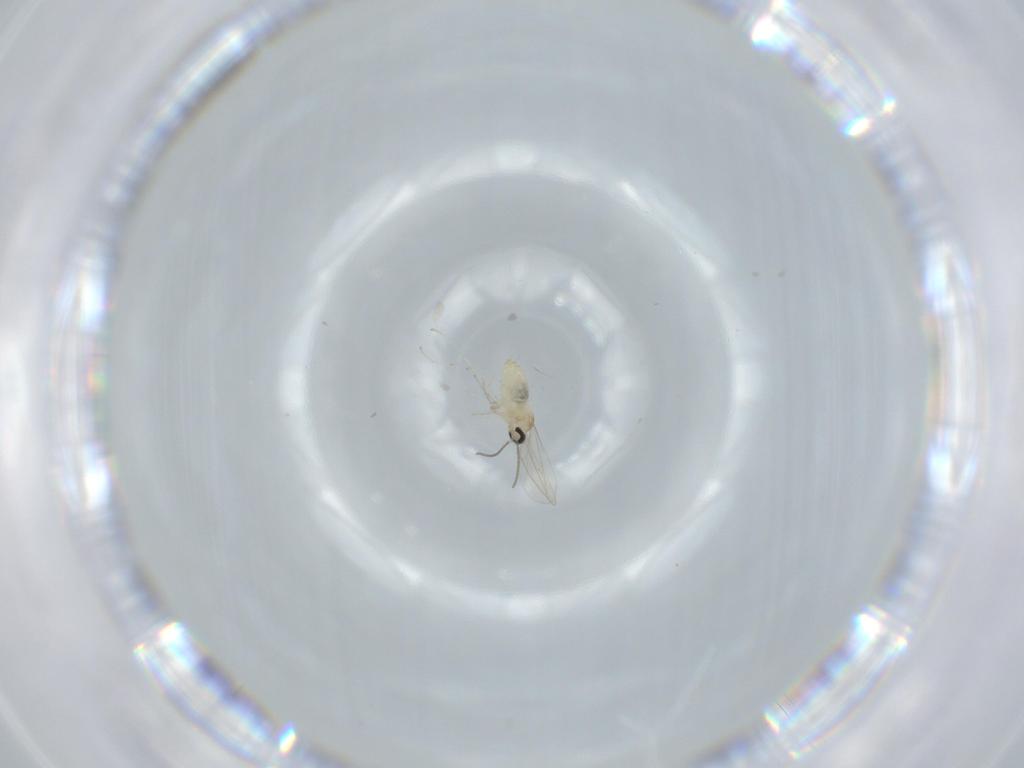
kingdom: Animalia
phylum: Arthropoda
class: Insecta
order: Diptera
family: Cecidomyiidae
